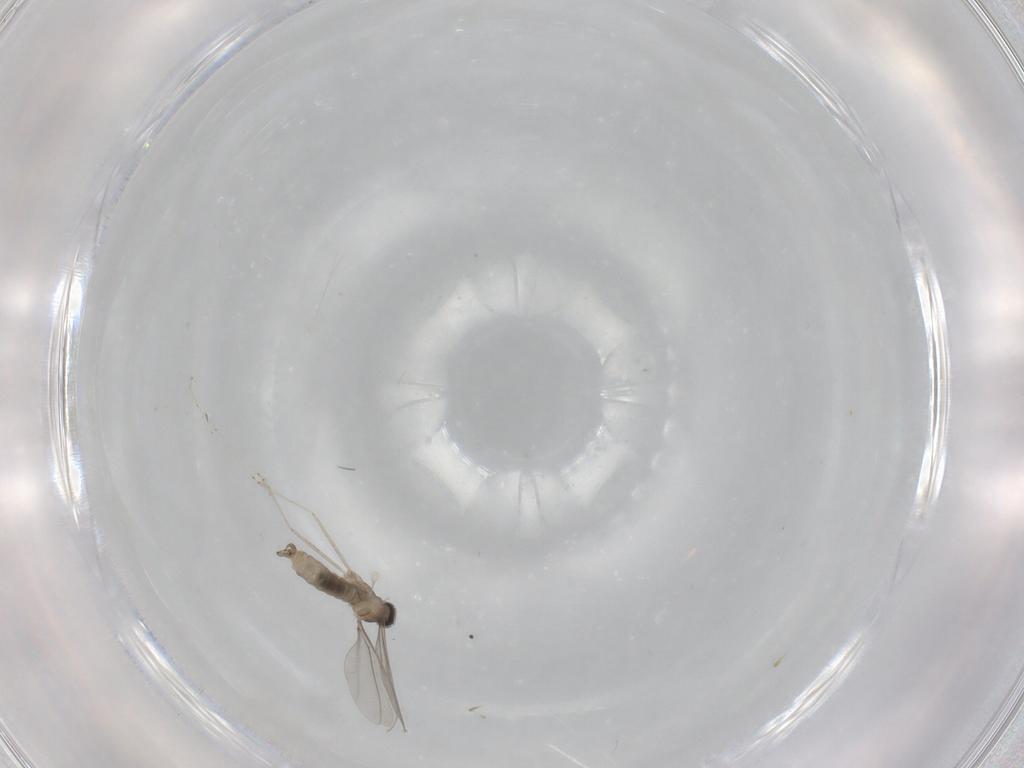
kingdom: Animalia
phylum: Arthropoda
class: Insecta
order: Diptera
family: Cecidomyiidae
